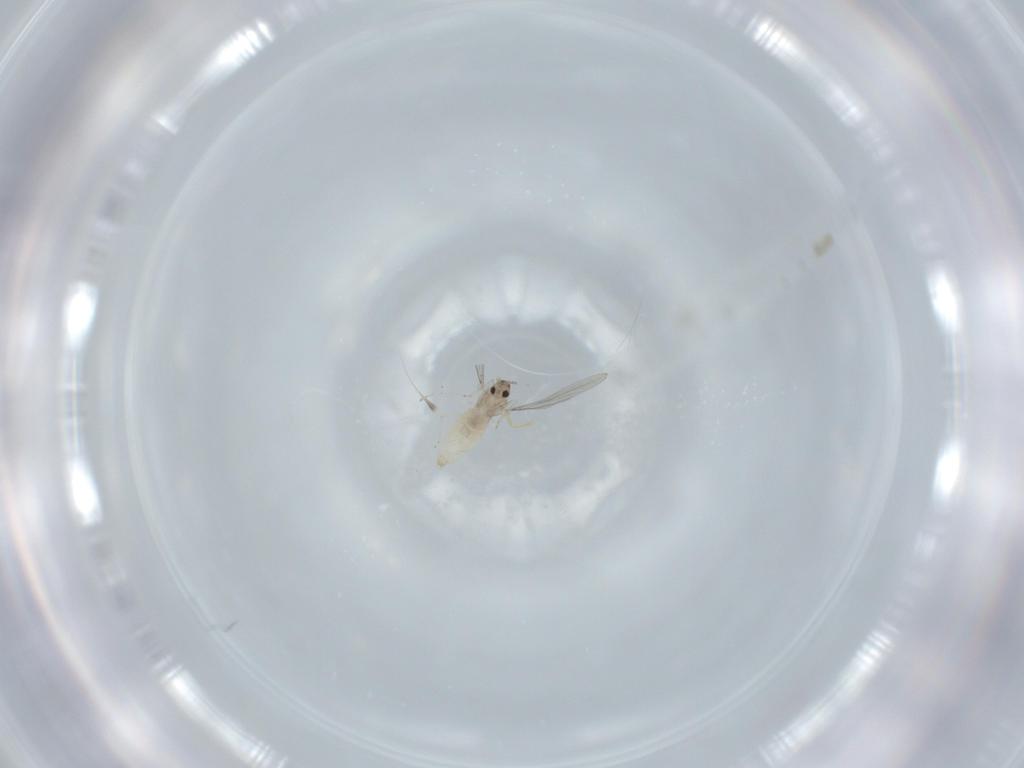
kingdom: Animalia
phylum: Arthropoda
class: Insecta
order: Diptera
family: Cecidomyiidae
